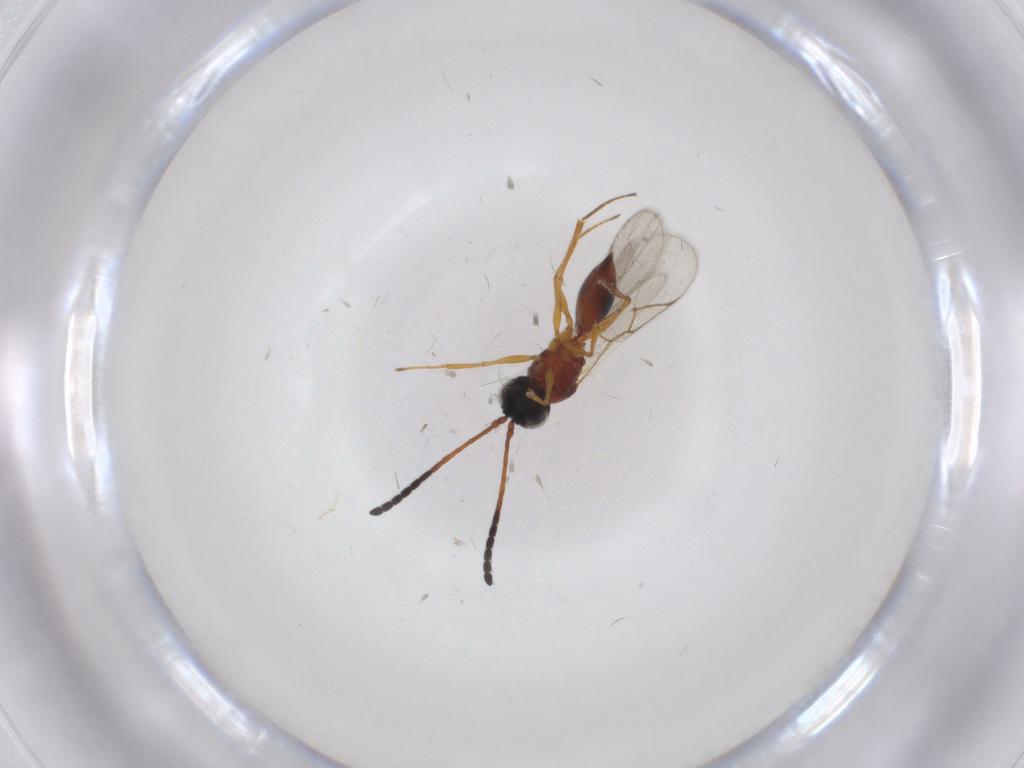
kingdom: Animalia
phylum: Arthropoda
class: Insecta
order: Hymenoptera
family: Figitidae
